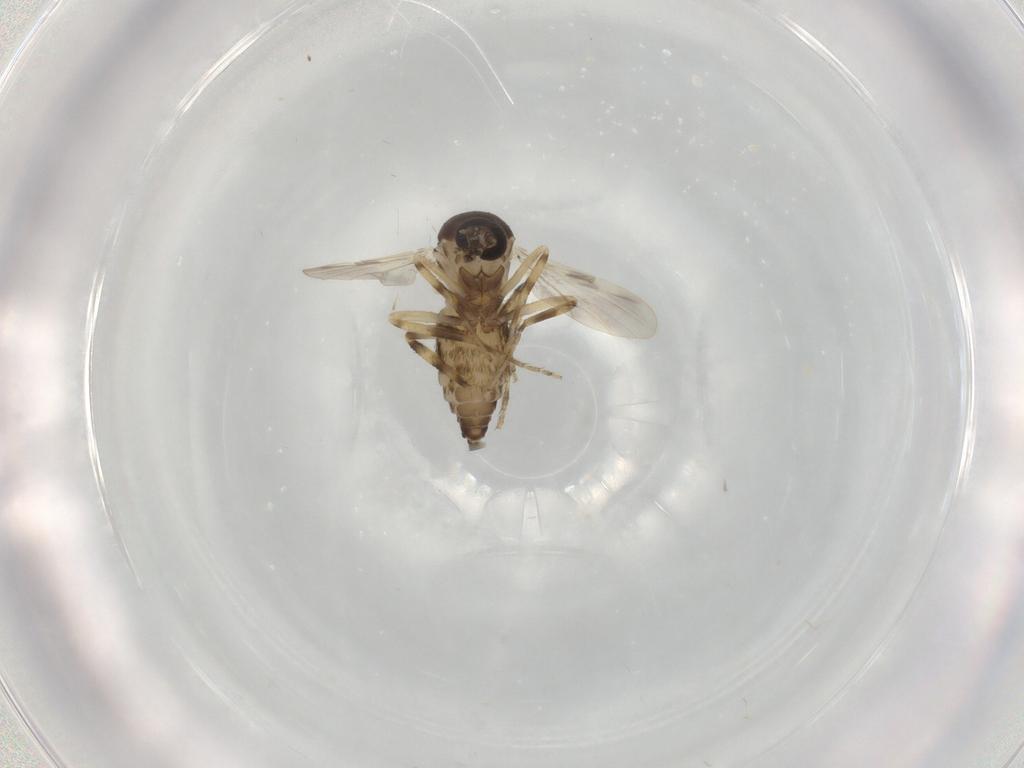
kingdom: Animalia
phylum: Arthropoda
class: Insecta
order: Diptera
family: Ceratopogonidae
